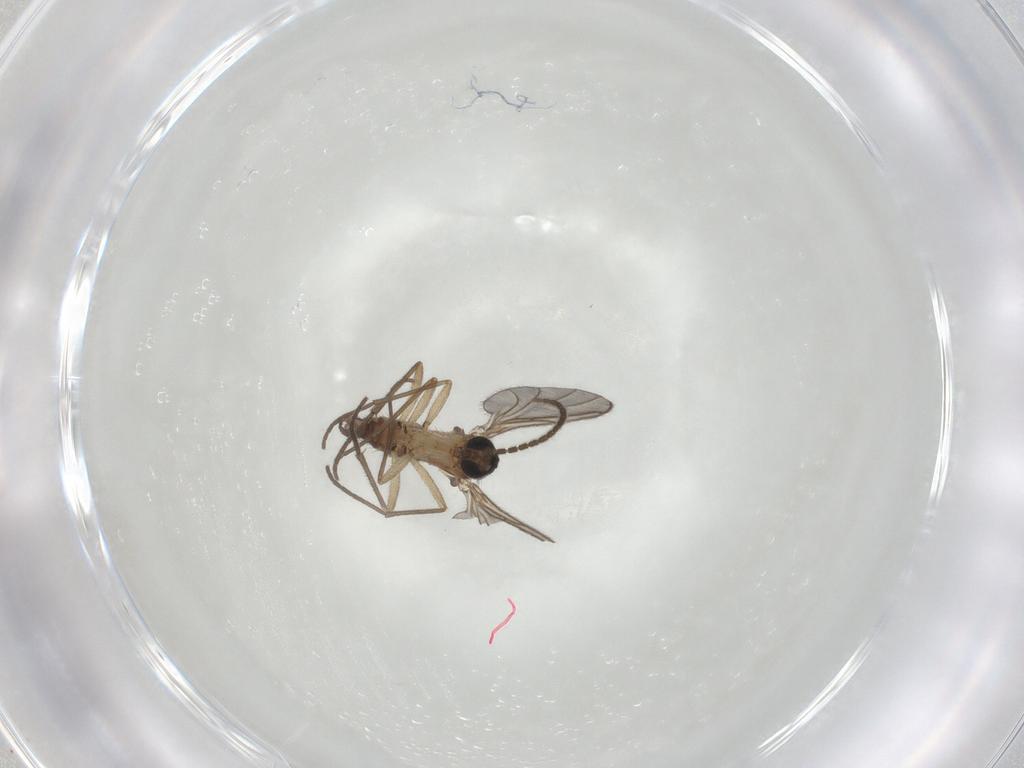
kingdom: Animalia
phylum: Arthropoda
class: Insecta
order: Diptera
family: Sciaridae
